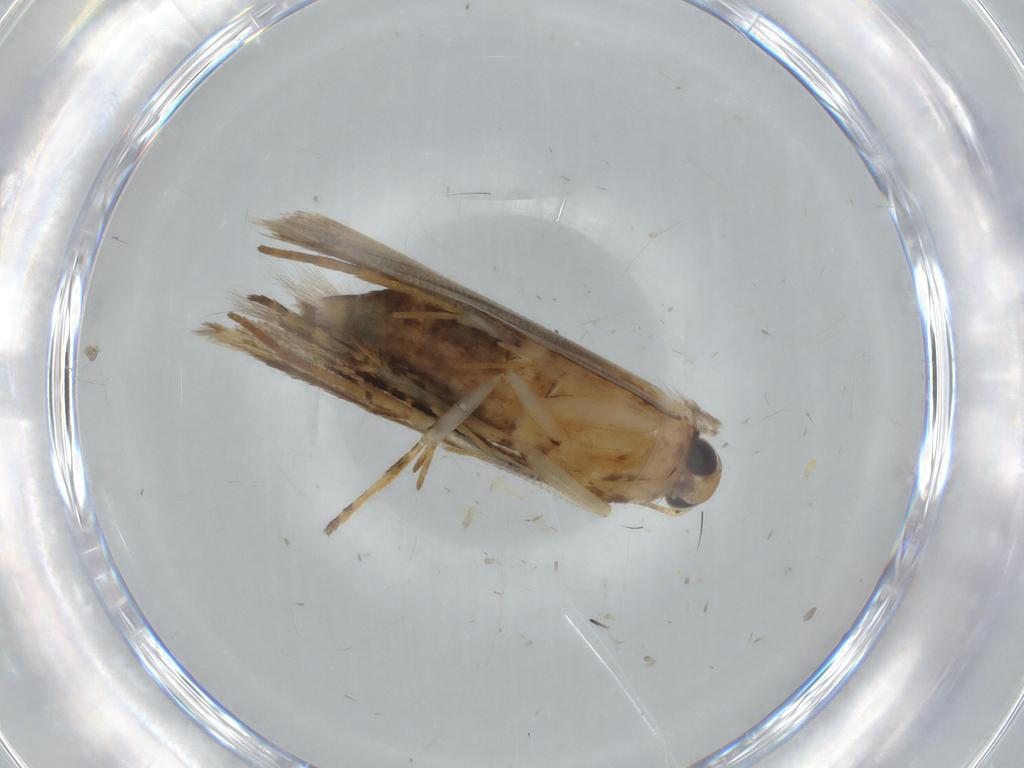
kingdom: Animalia
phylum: Arthropoda
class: Insecta
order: Lepidoptera
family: Gelechiidae
